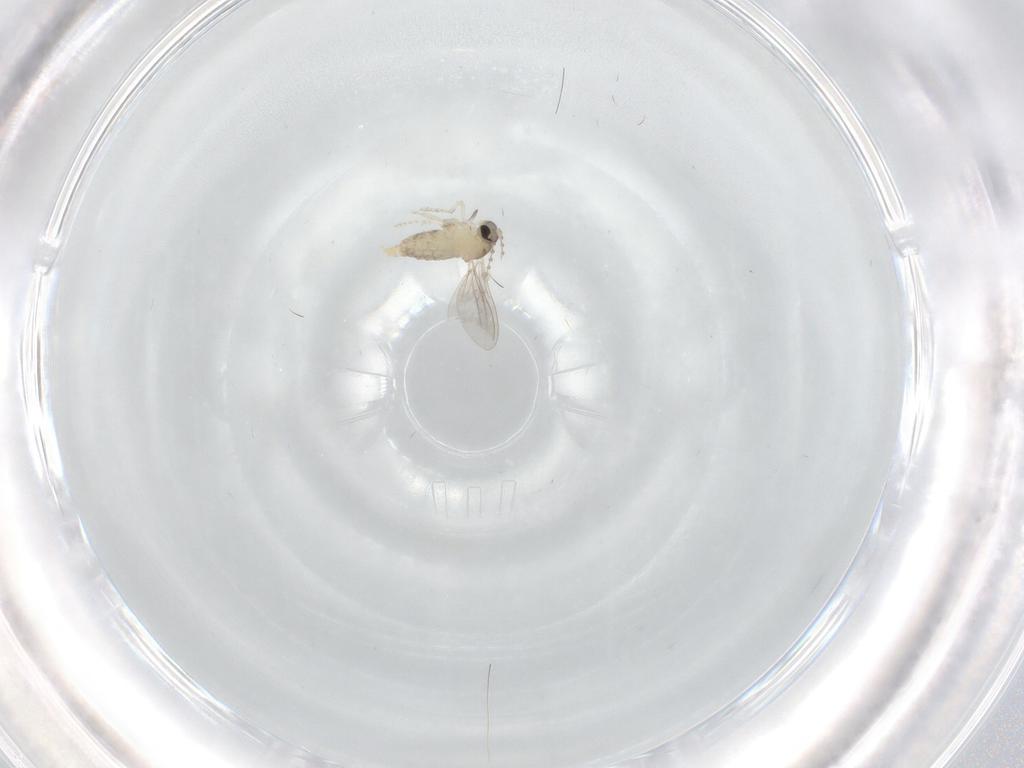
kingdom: Animalia
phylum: Arthropoda
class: Insecta
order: Diptera
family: Cecidomyiidae
